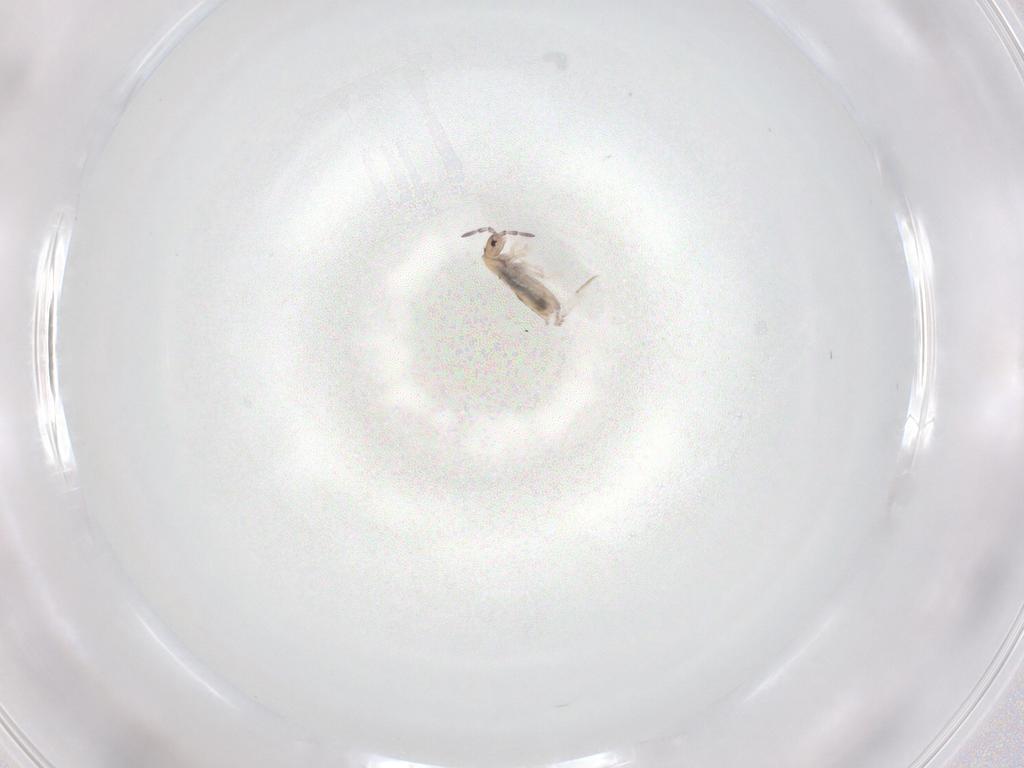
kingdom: Animalia
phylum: Arthropoda
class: Collembola
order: Entomobryomorpha
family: Entomobryidae
